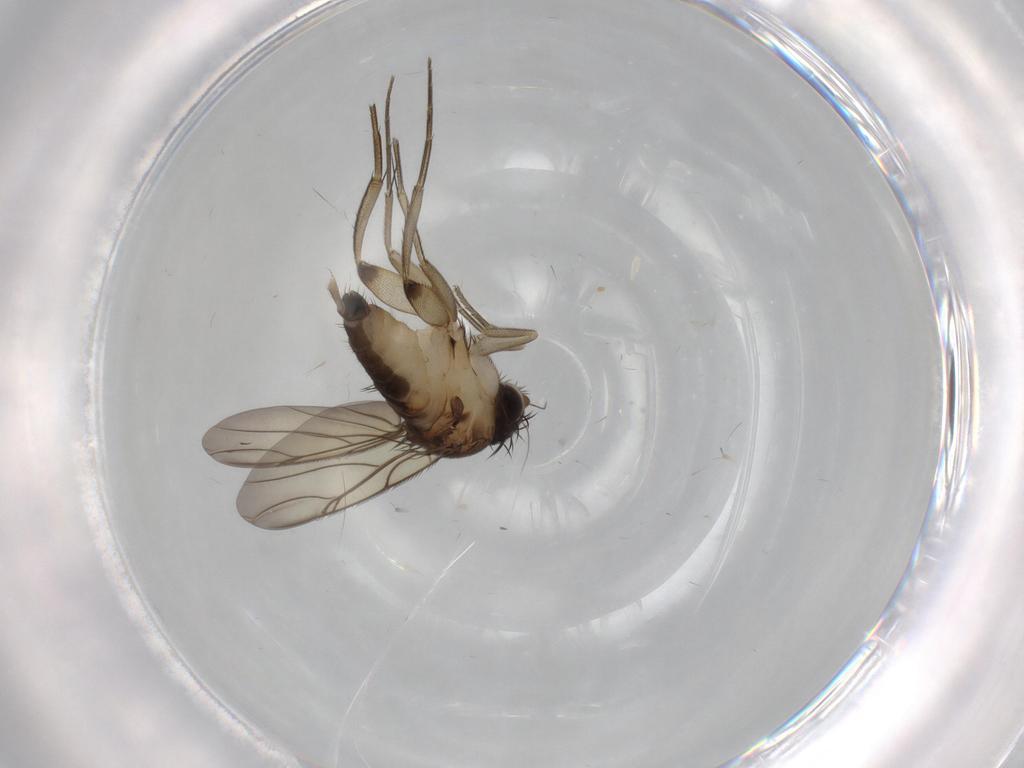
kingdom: Animalia
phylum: Arthropoda
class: Insecta
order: Diptera
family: Phoridae
